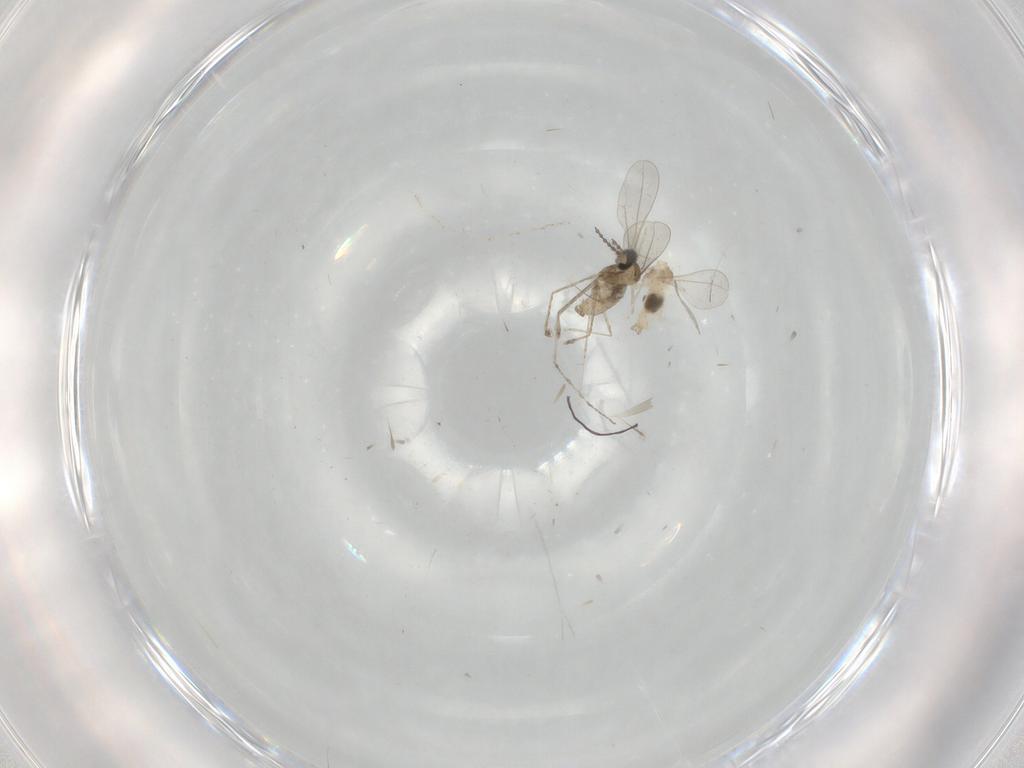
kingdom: Animalia
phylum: Arthropoda
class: Insecta
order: Diptera
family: Cecidomyiidae
